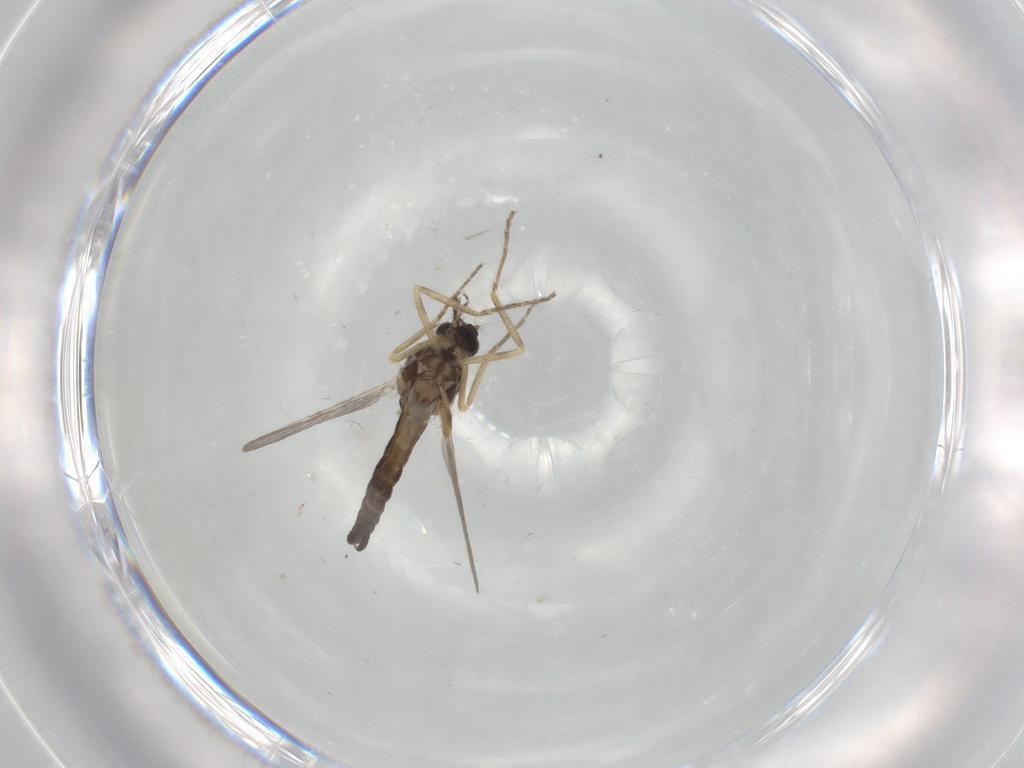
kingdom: Animalia
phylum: Arthropoda
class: Insecta
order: Diptera
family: Ceratopogonidae
